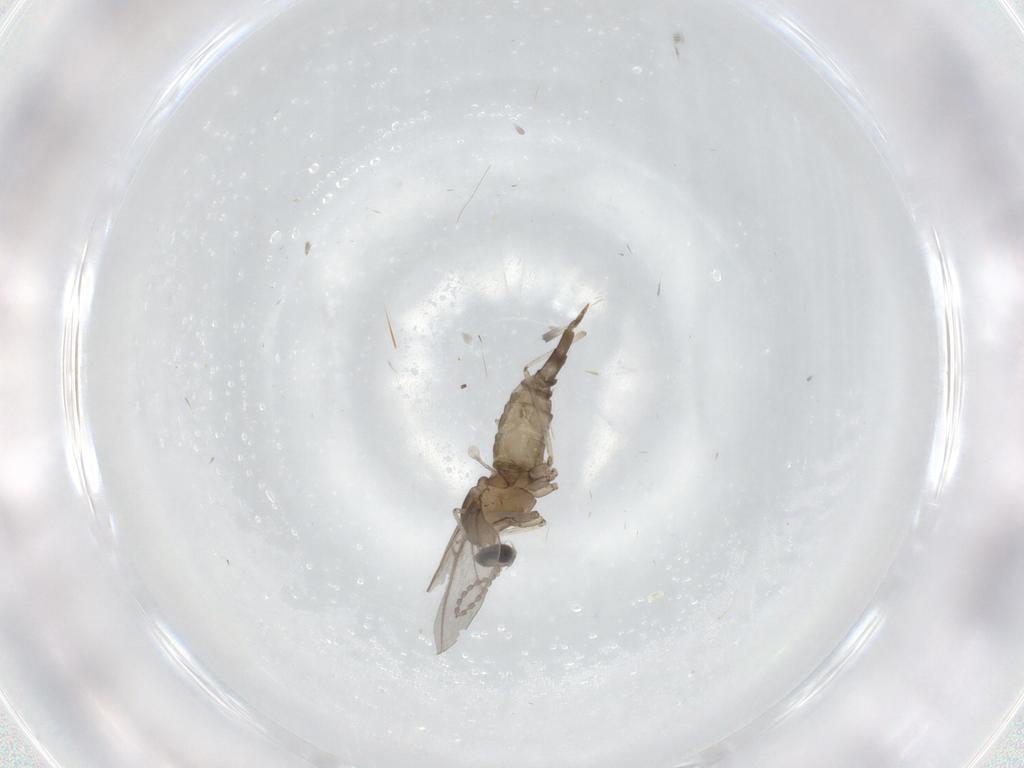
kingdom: Animalia
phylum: Arthropoda
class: Insecta
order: Diptera
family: Cecidomyiidae
